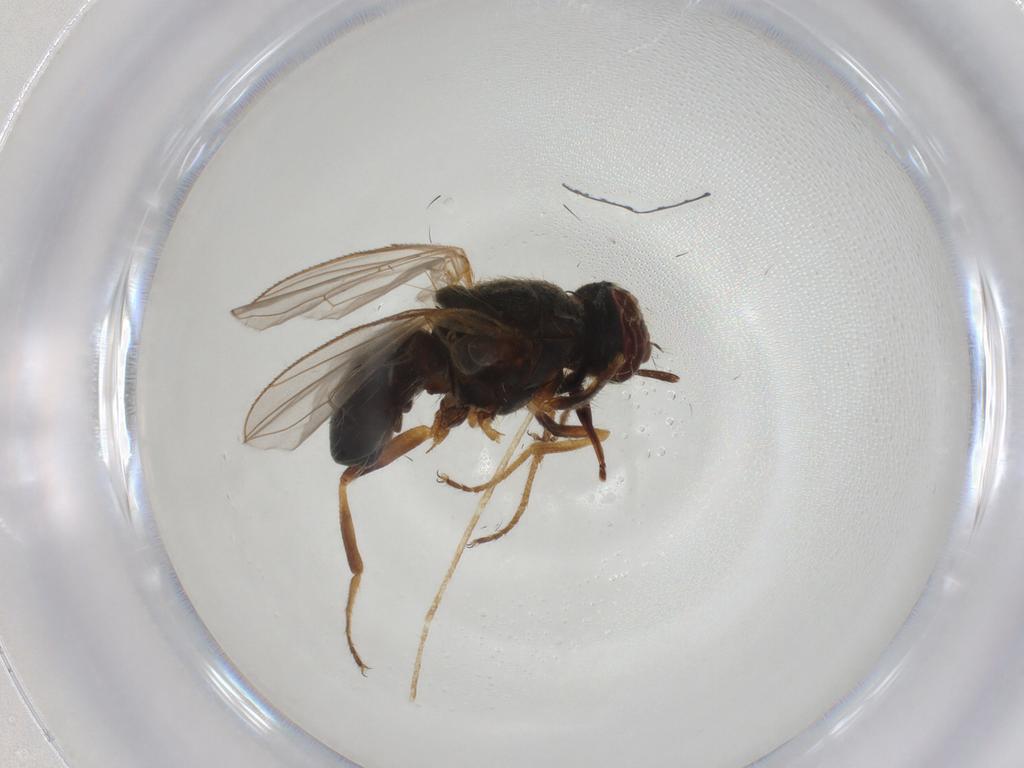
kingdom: Animalia
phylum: Arthropoda
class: Insecta
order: Diptera
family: Muscidae
